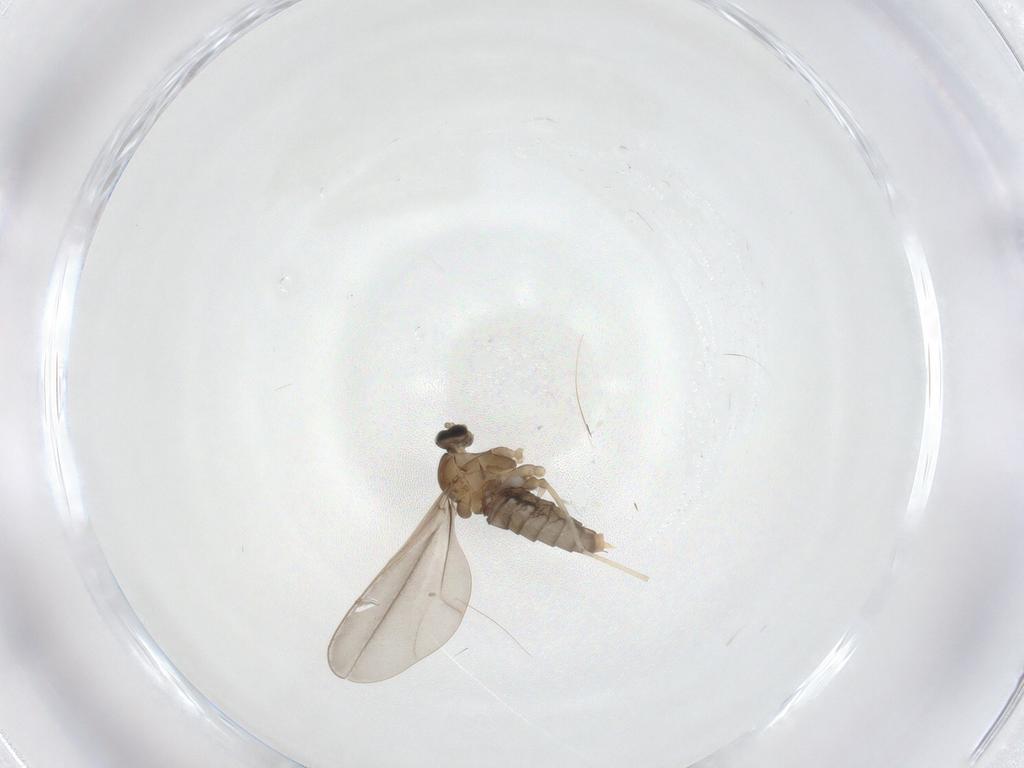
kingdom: Animalia
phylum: Arthropoda
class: Insecta
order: Diptera
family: Cecidomyiidae
